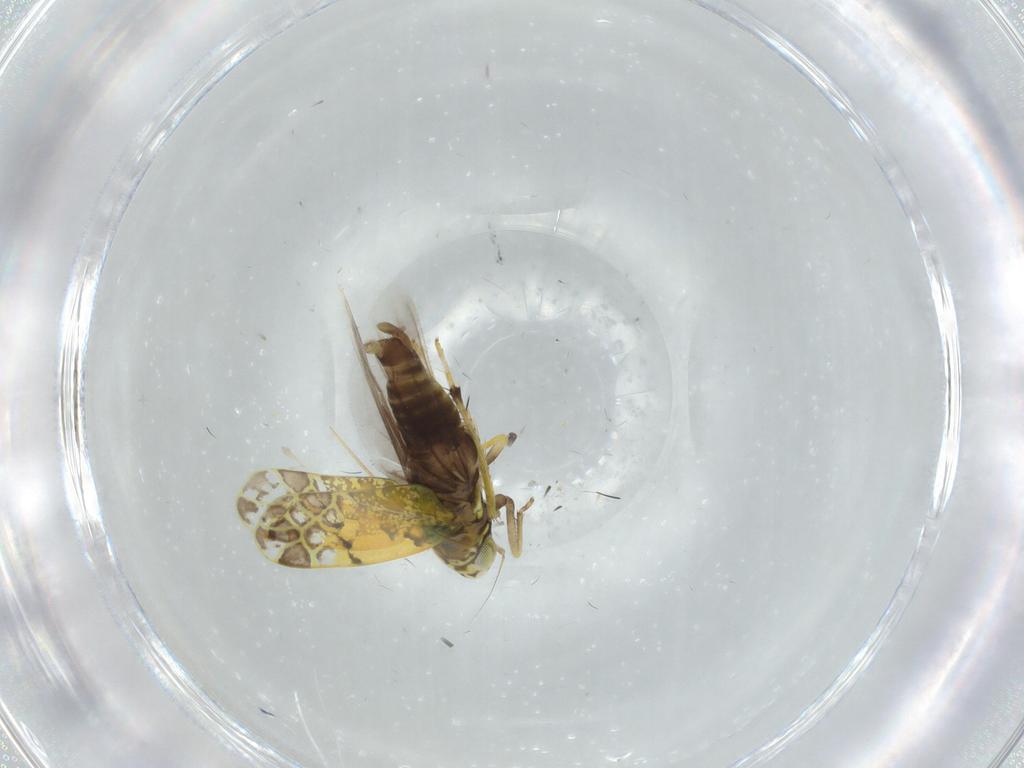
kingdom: Animalia
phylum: Arthropoda
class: Insecta
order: Hemiptera
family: Cicadellidae
